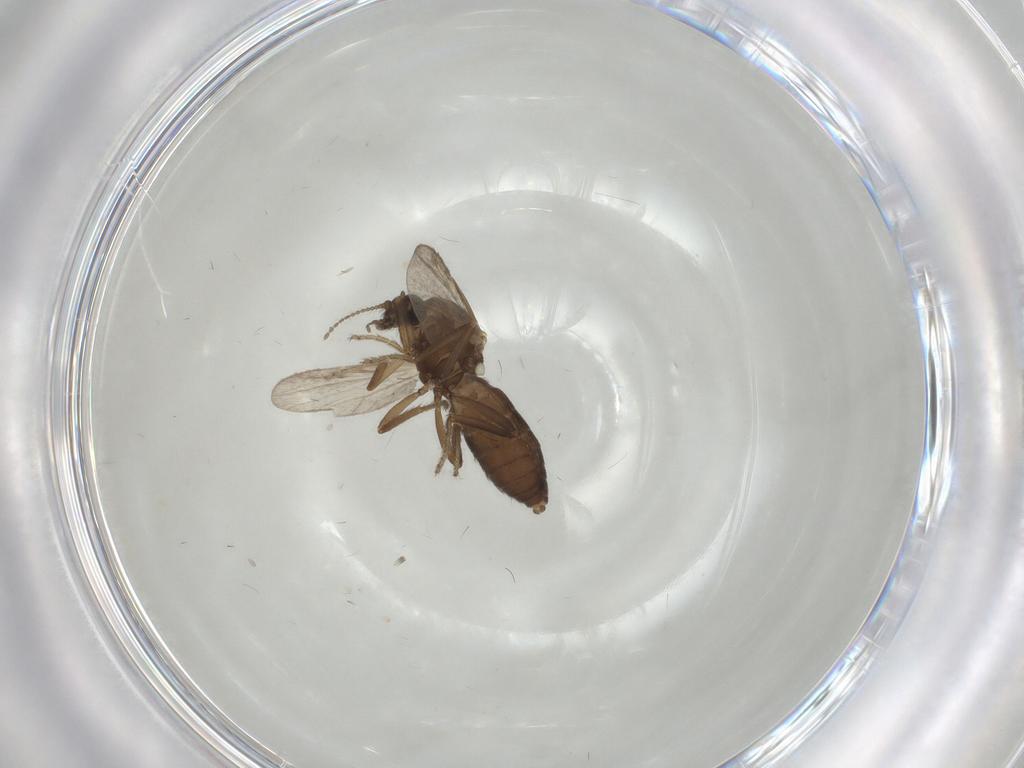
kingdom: Animalia
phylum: Arthropoda
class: Insecta
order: Diptera
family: Ceratopogonidae
